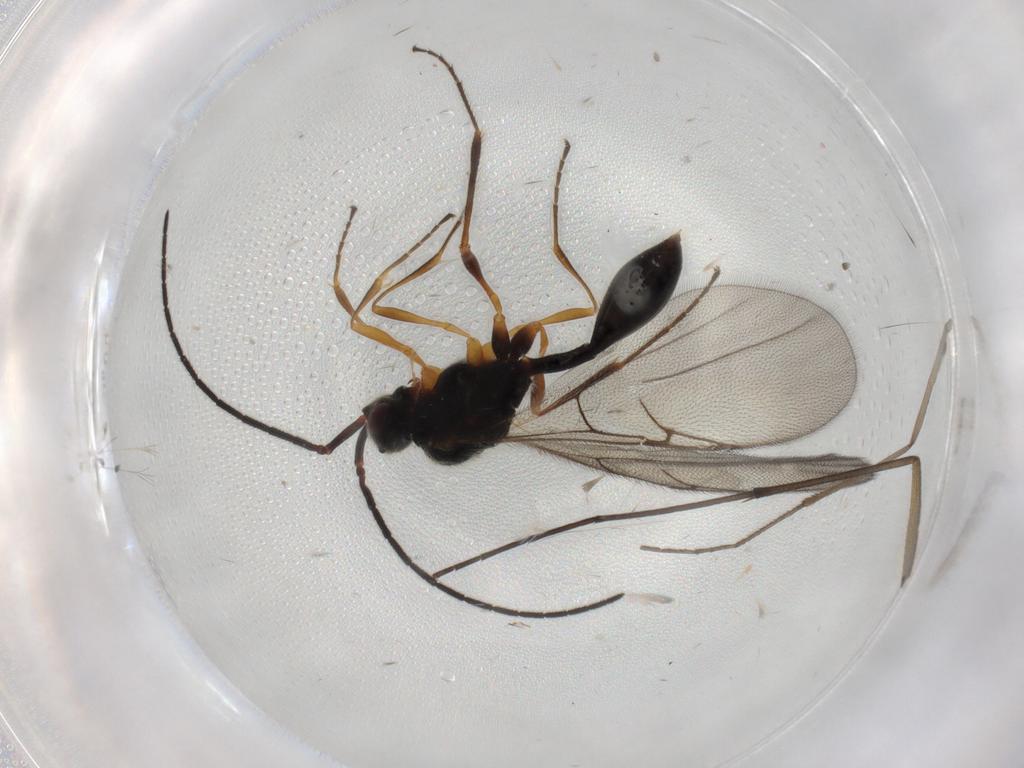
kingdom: Animalia
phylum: Arthropoda
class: Insecta
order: Hymenoptera
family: Diapriidae
